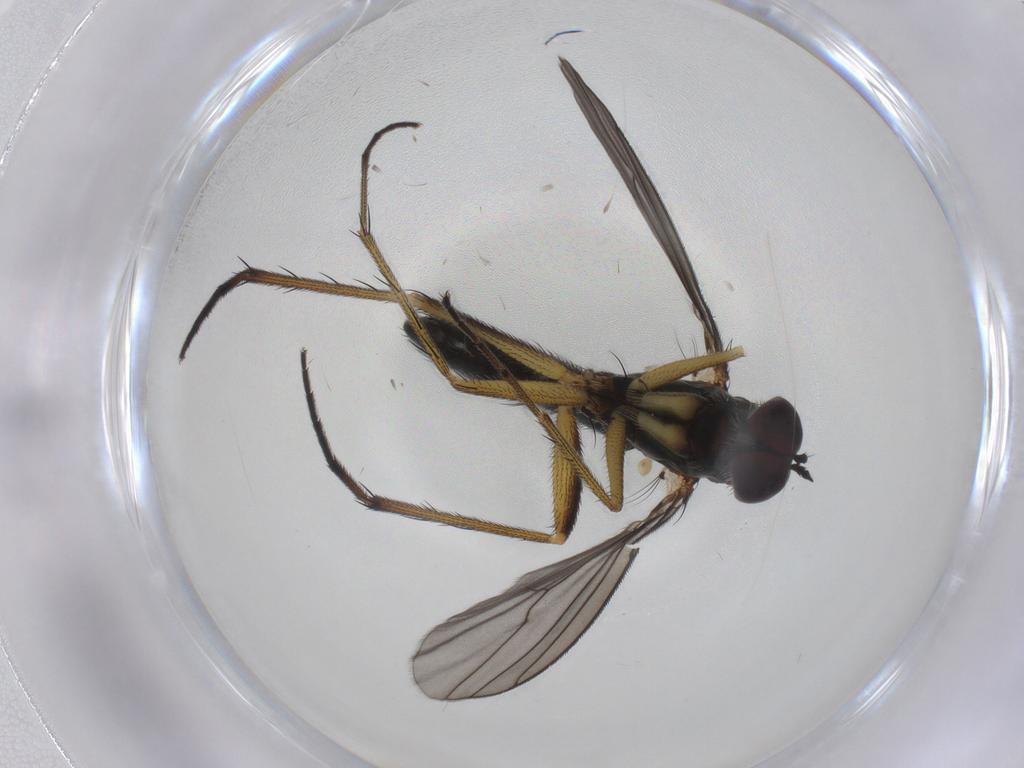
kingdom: Animalia
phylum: Arthropoda
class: Insecta
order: Diptera
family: Dolichopodidae
